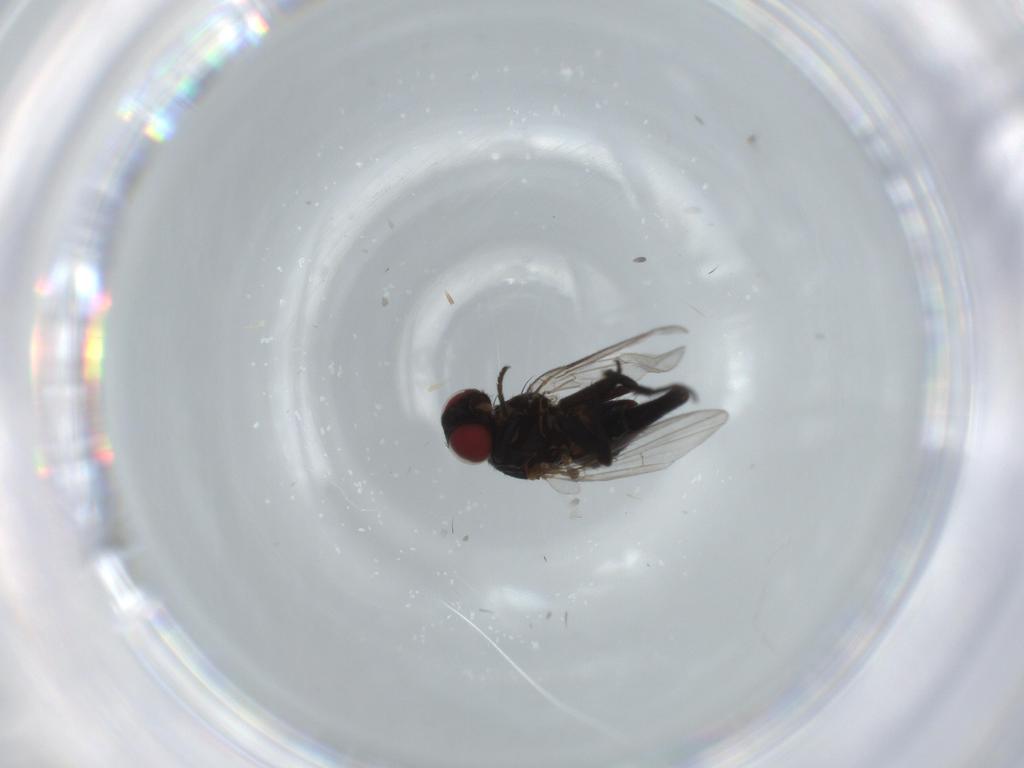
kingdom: Animalia
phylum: Arthropoda
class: Insecta
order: Diptera
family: Agromyzidae
